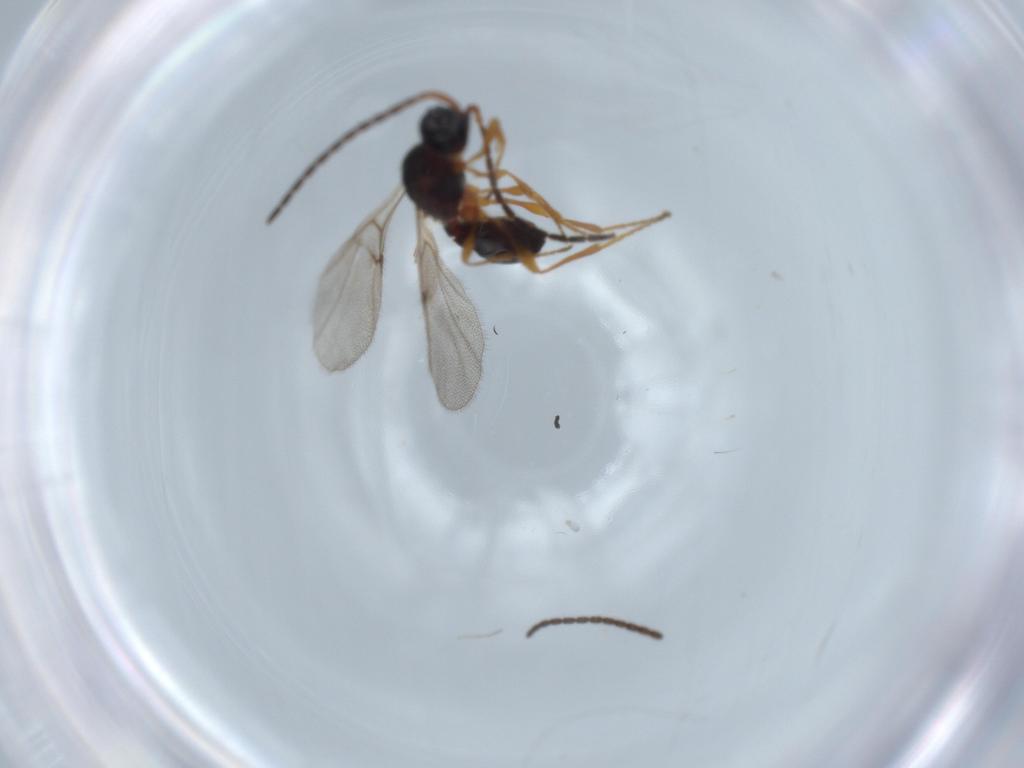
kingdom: Animalia
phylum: Arthropoda
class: Insecta
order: Hymenoptera
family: Diapriidae
